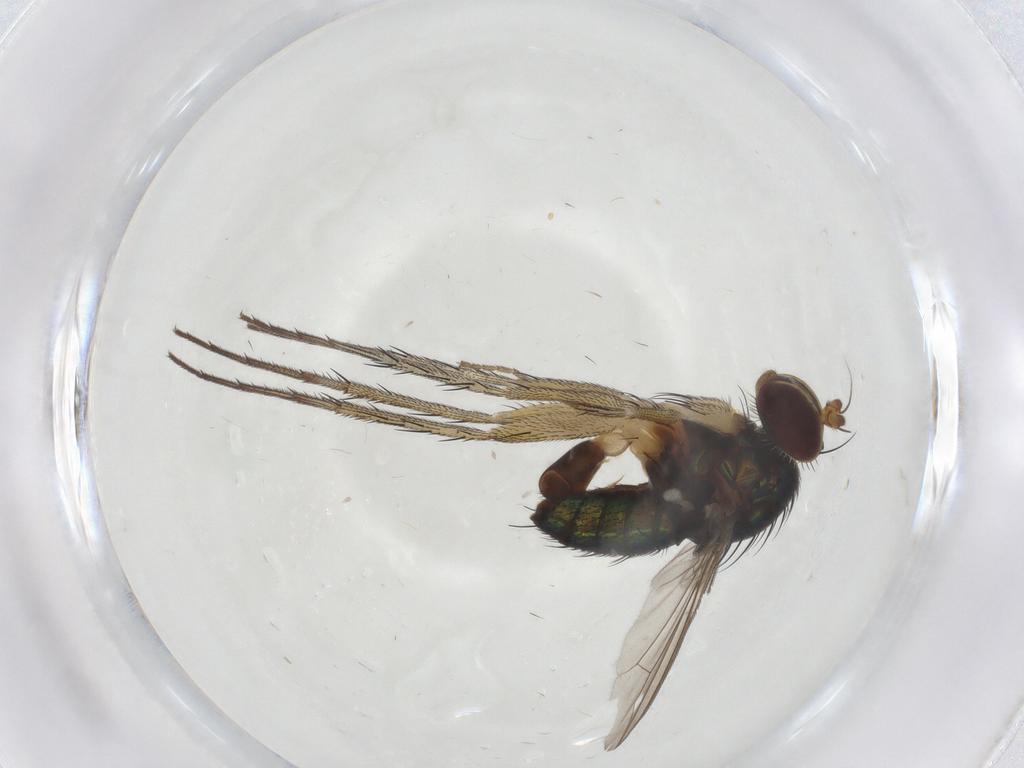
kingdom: Animalia
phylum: Arthropoda
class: Insecta
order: Diptera
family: Dolichopodidae
